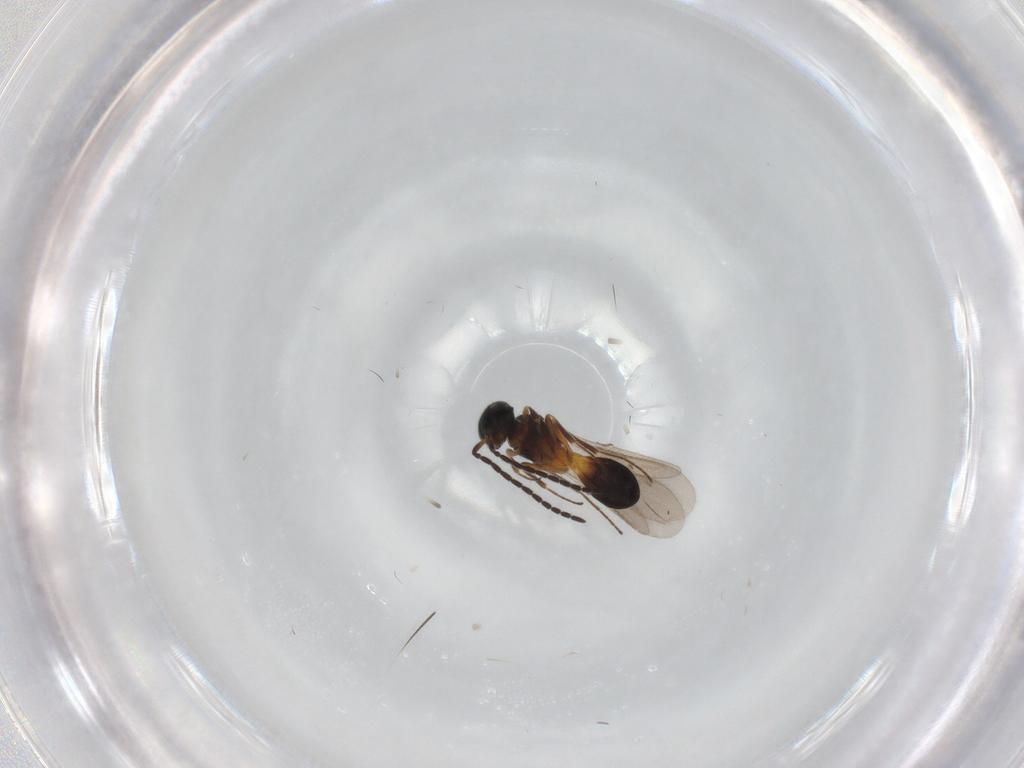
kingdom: Animalia
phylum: Arthropoda
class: Insecta
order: Hymenoptera
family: Figitidae
